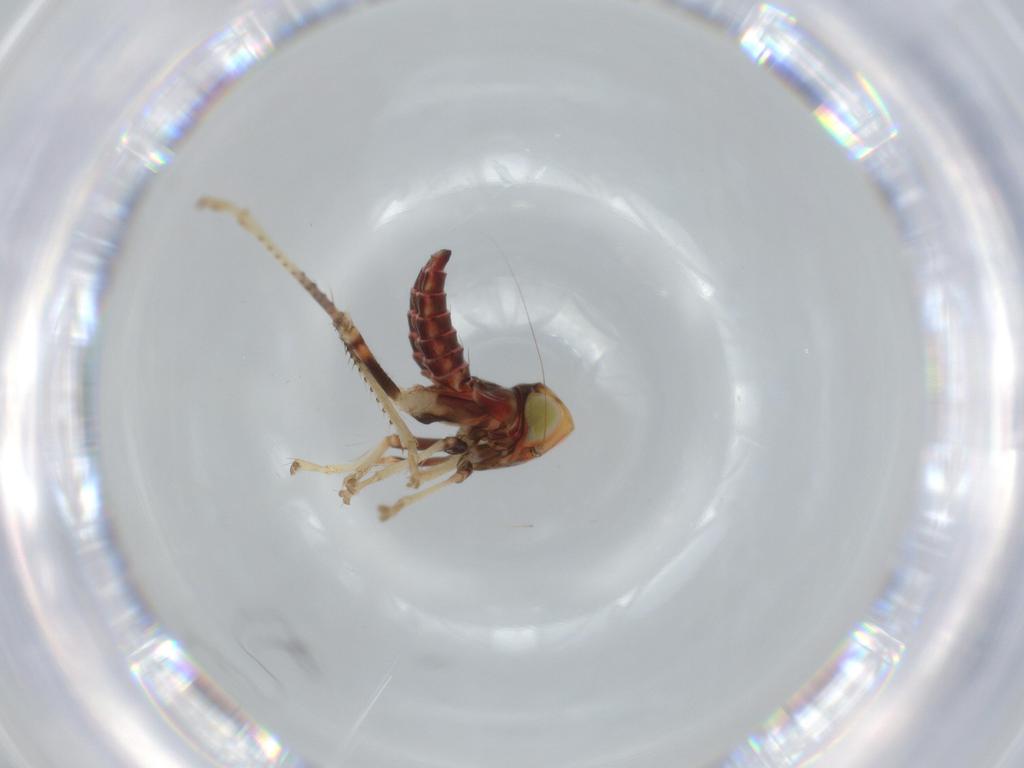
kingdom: Animalia
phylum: Arthropoda
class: Insecta
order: Hemiptera
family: Cicadellidae
